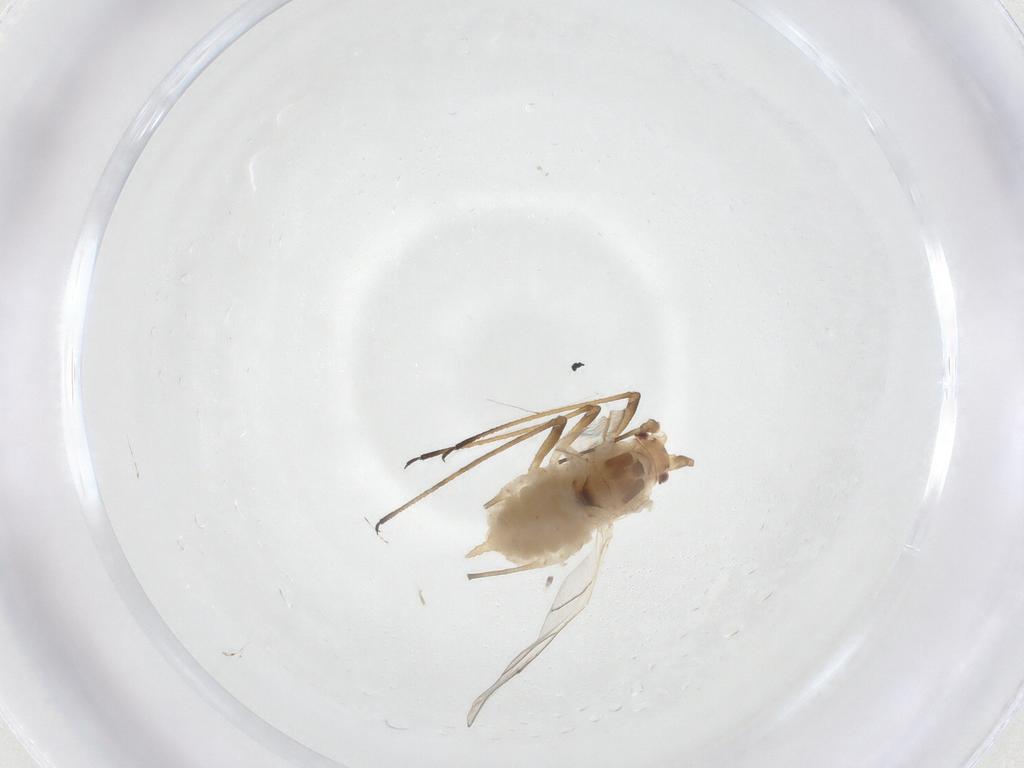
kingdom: Animalia
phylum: Arthropoda
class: Insecta
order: Hemiptera
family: Aphididae
